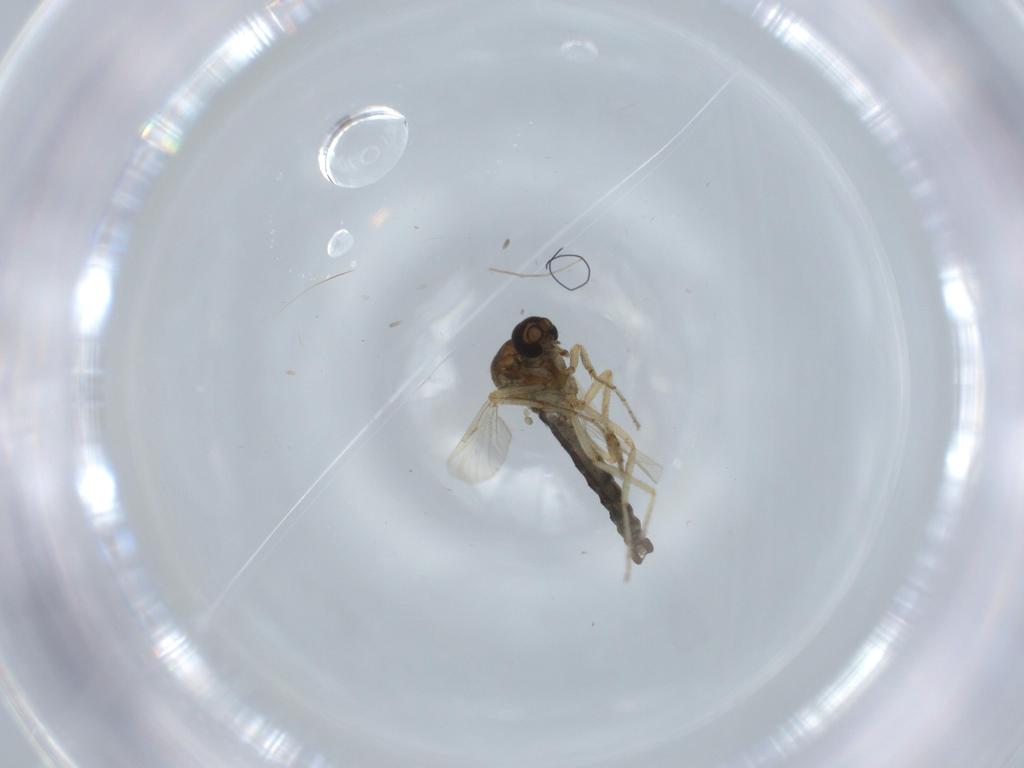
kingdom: Animalia
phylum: Arthropoda
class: Insecta
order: Diptera
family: Ceratopogonidae
